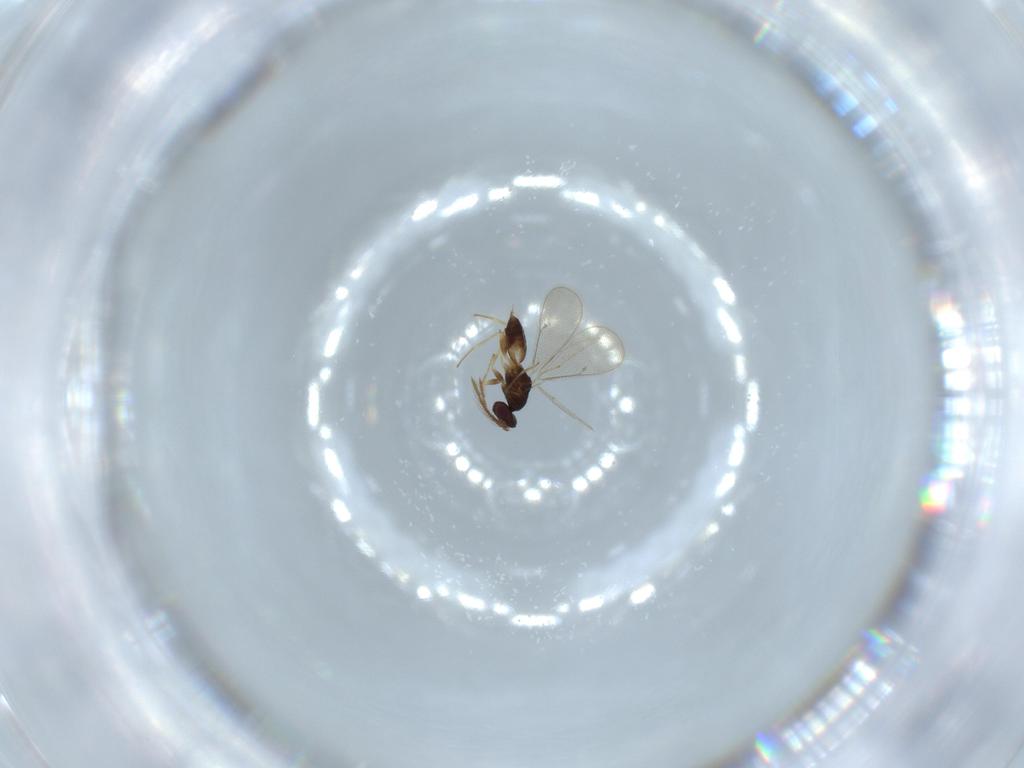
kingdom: Animalia
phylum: Arthropoda
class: Insecta
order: Hymenoptera
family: Eulophidae
